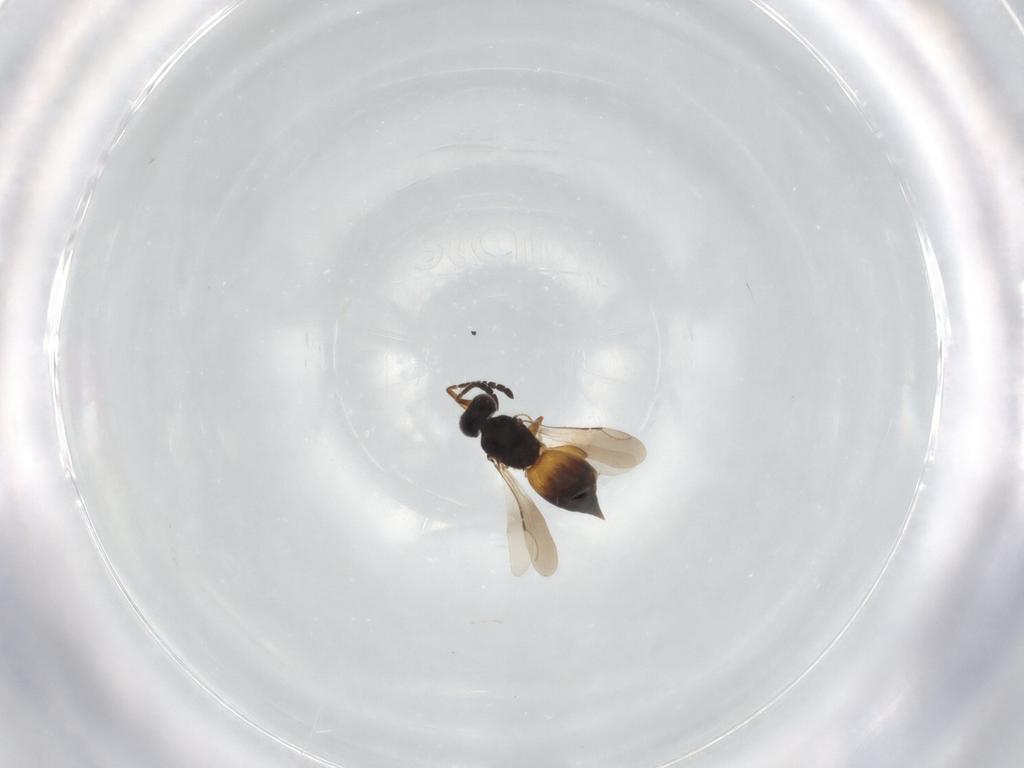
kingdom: Animalia
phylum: Arthropoda
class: Insecta
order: Hymenoptera
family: Ceraphronidae
